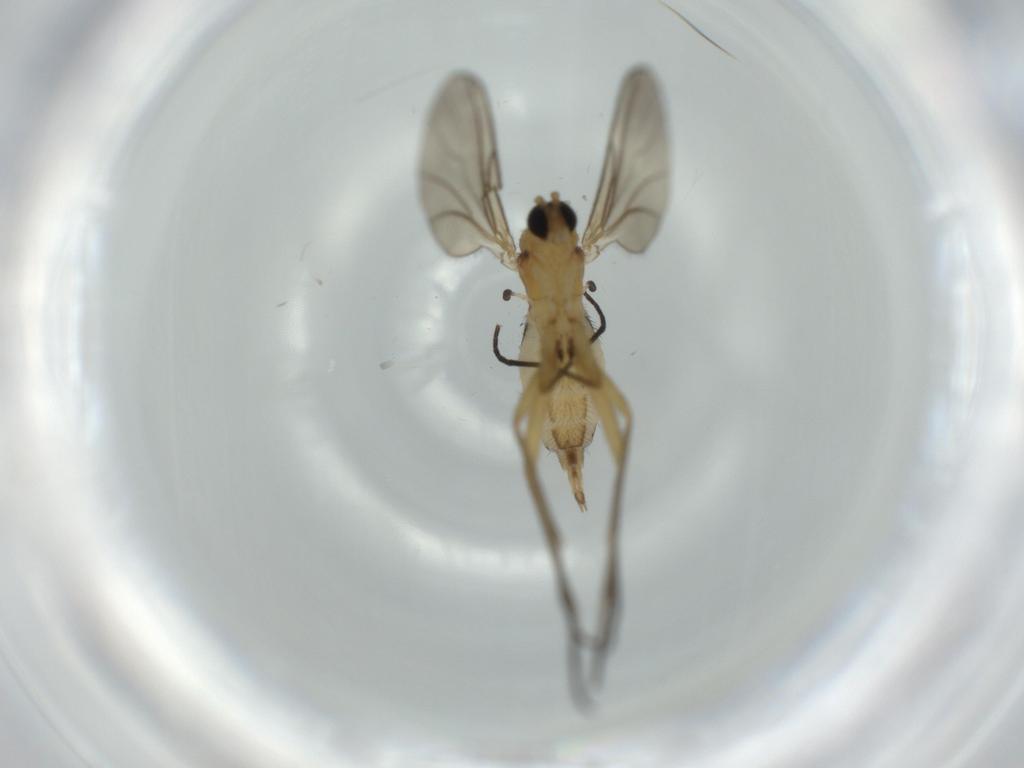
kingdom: Animalia
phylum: Arthropoda
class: Insecta
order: Diptera
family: Sciaridae
